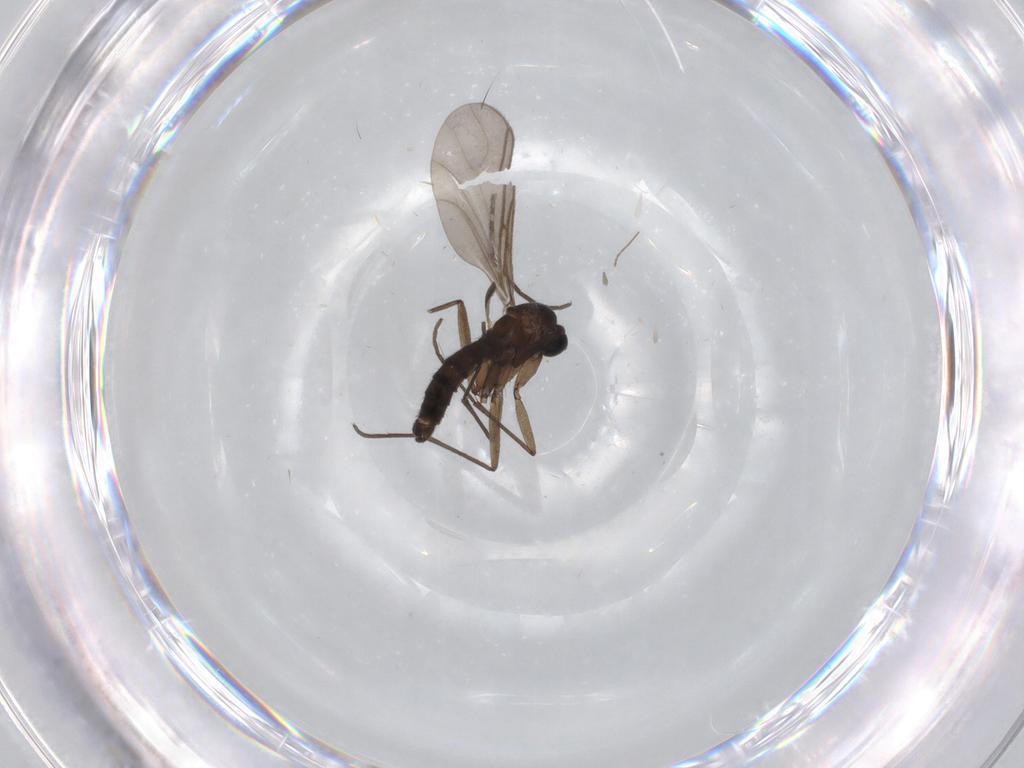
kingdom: Animalia
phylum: Arthropoda
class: Insecta
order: Diptera
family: Sciaridae
